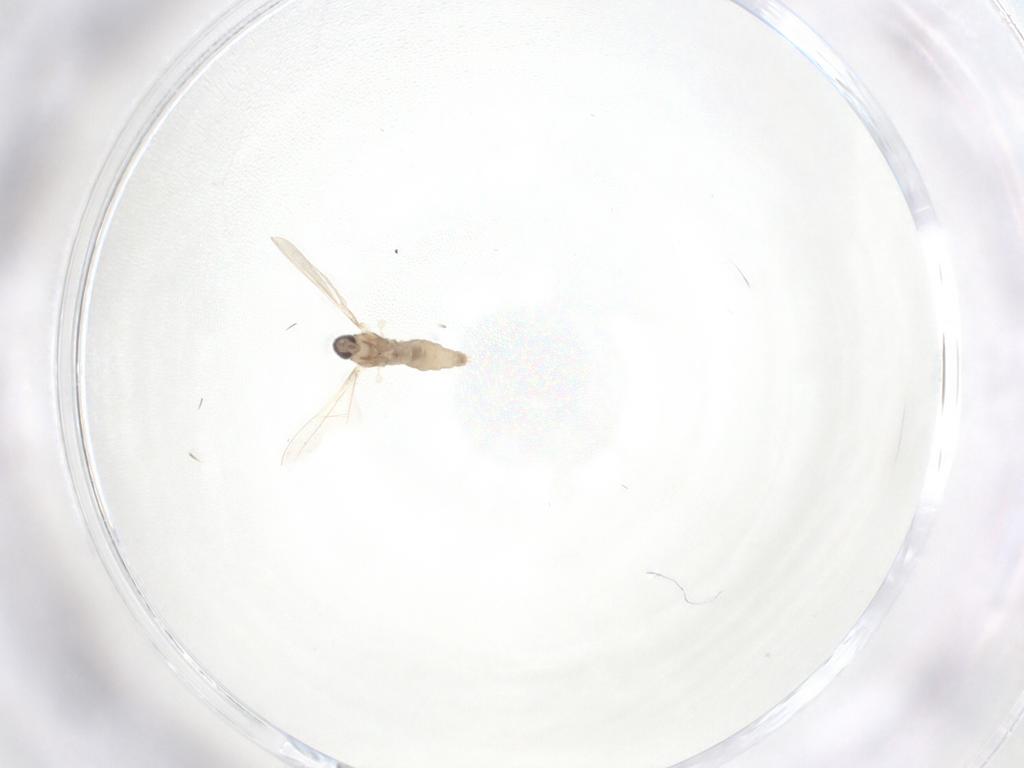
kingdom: Animalia
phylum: Arthropoda
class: Insecta
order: Diptera
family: Cecidomyiidae
